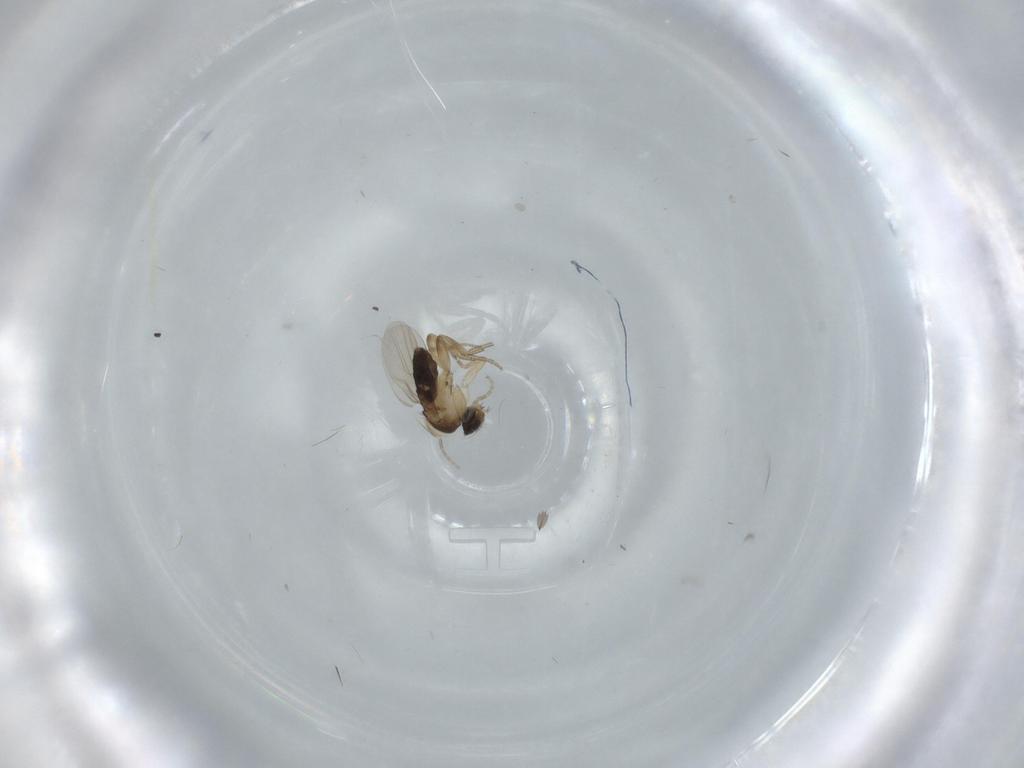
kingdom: Animalia
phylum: Arthropoda
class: Insecta
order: Diptera
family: Phoridae
